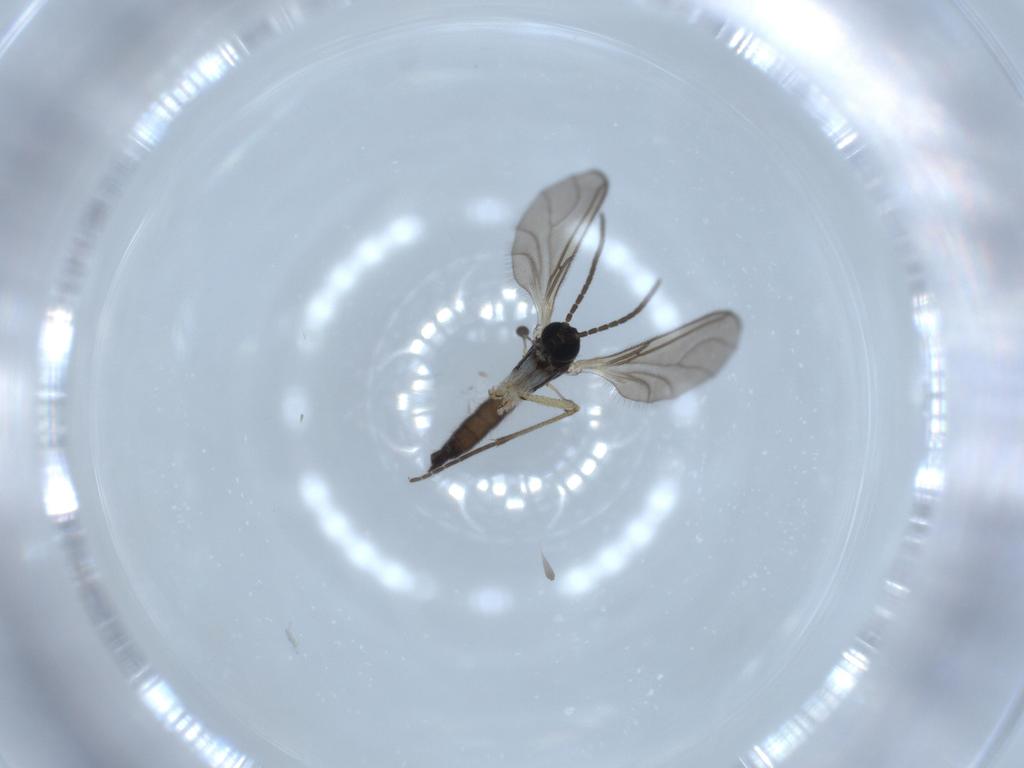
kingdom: Animalia
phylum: Arthropoda
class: Insecta
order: Diptera
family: Sciaridae
